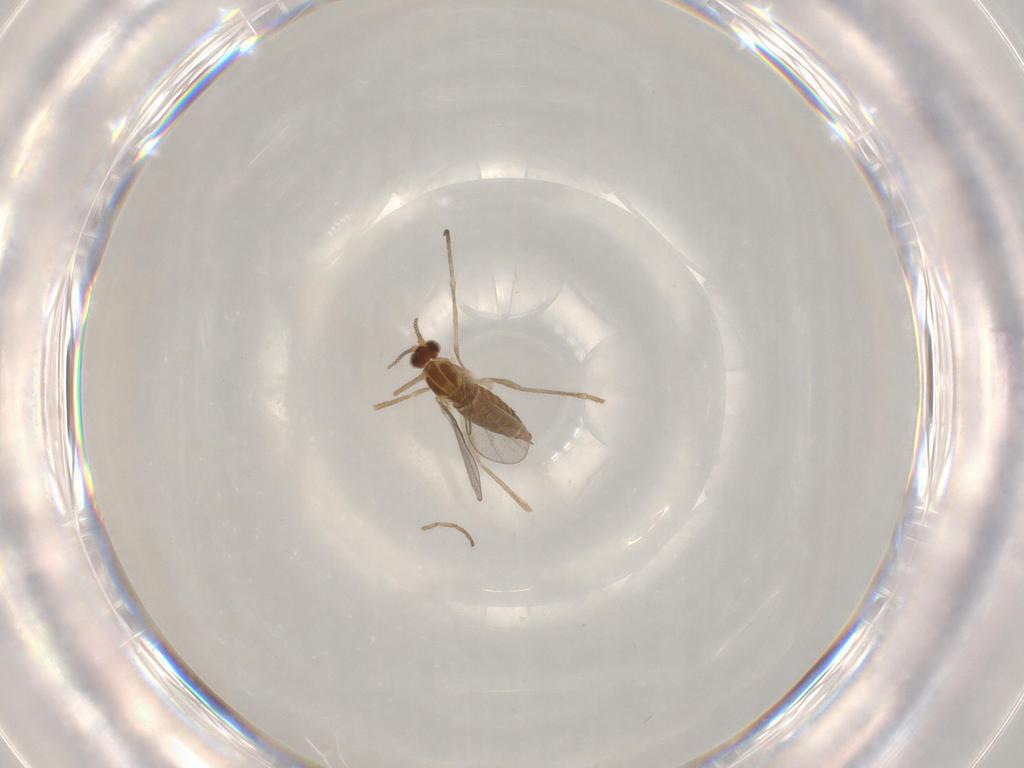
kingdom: Animalia
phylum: Arthropoda
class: Insecta
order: Diptera
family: Cecidomyiidae
